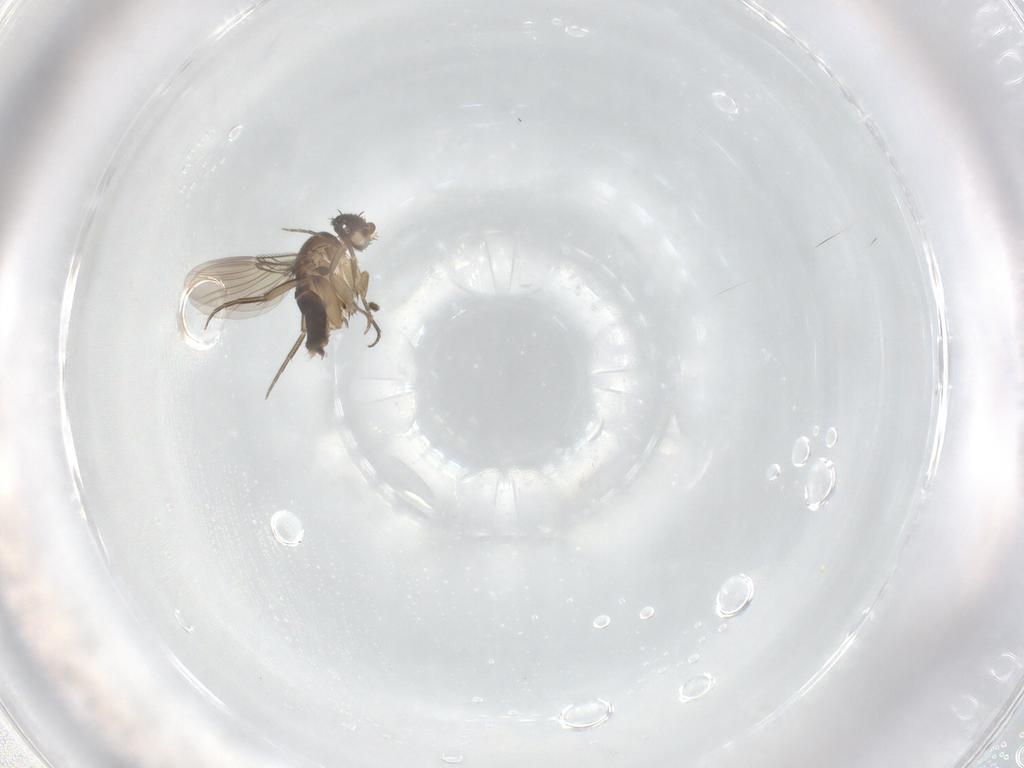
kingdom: Animalia
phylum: Arthropoda
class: Insecta
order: Diptera
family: Phoridae
